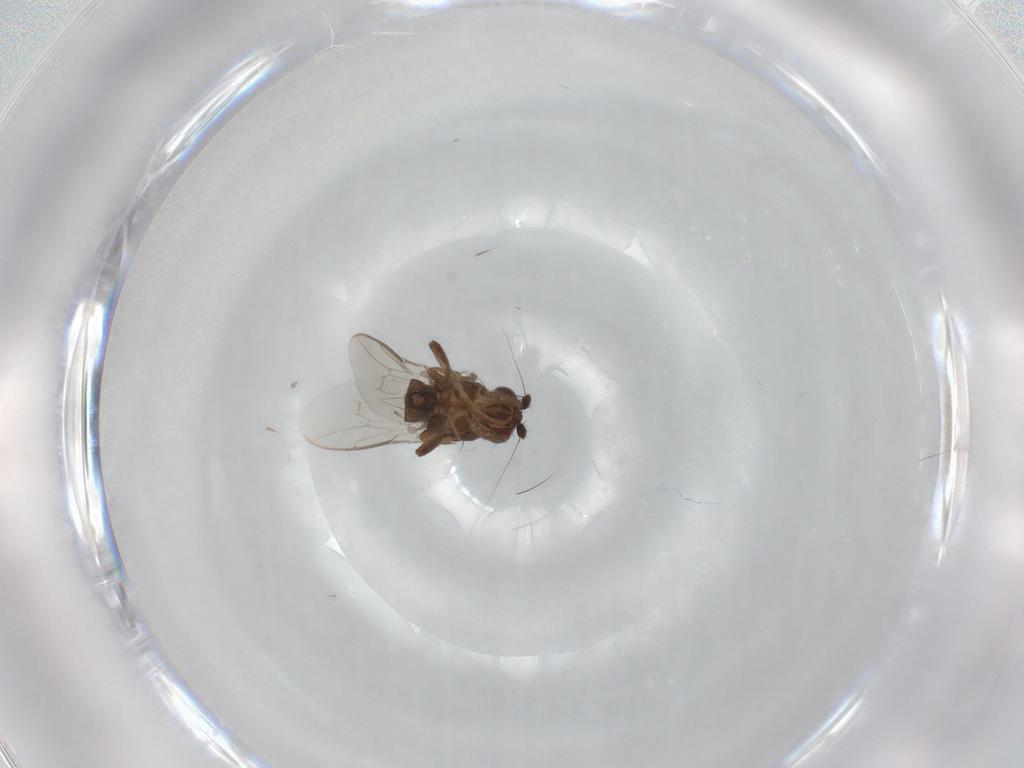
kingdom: Animalia
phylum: Arthropoda
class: Insecta
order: Diptera
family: Sphaeroceridae
